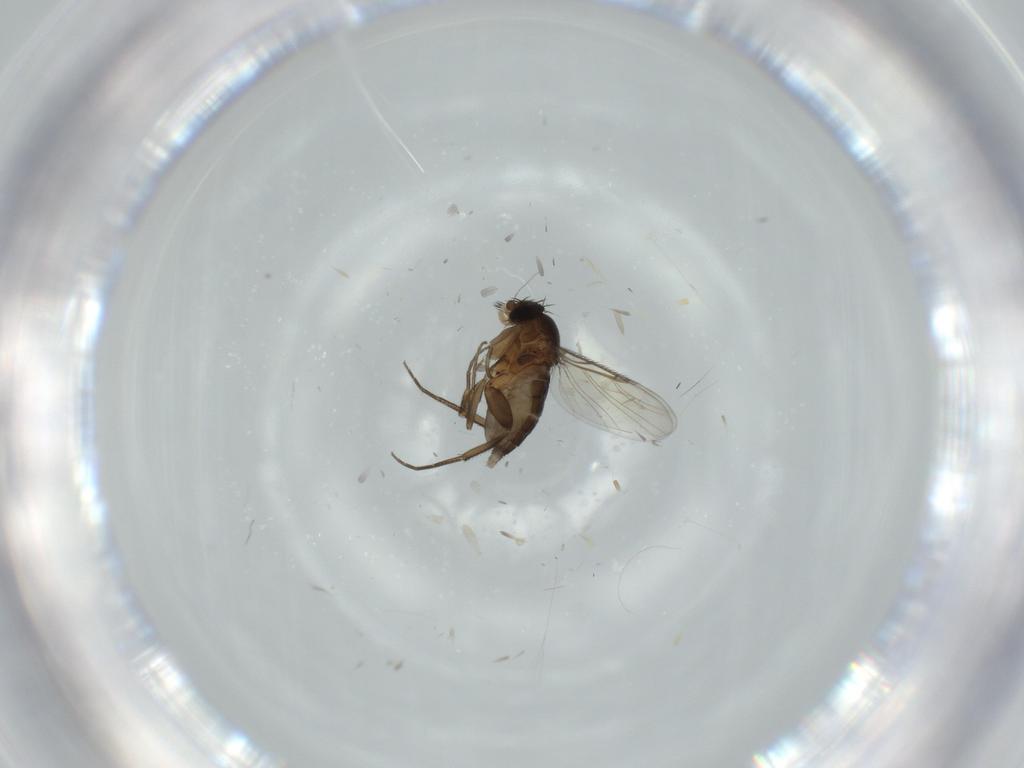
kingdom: Animalia
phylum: Arthropoda
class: Insecta
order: Diptera
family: Phoridae
